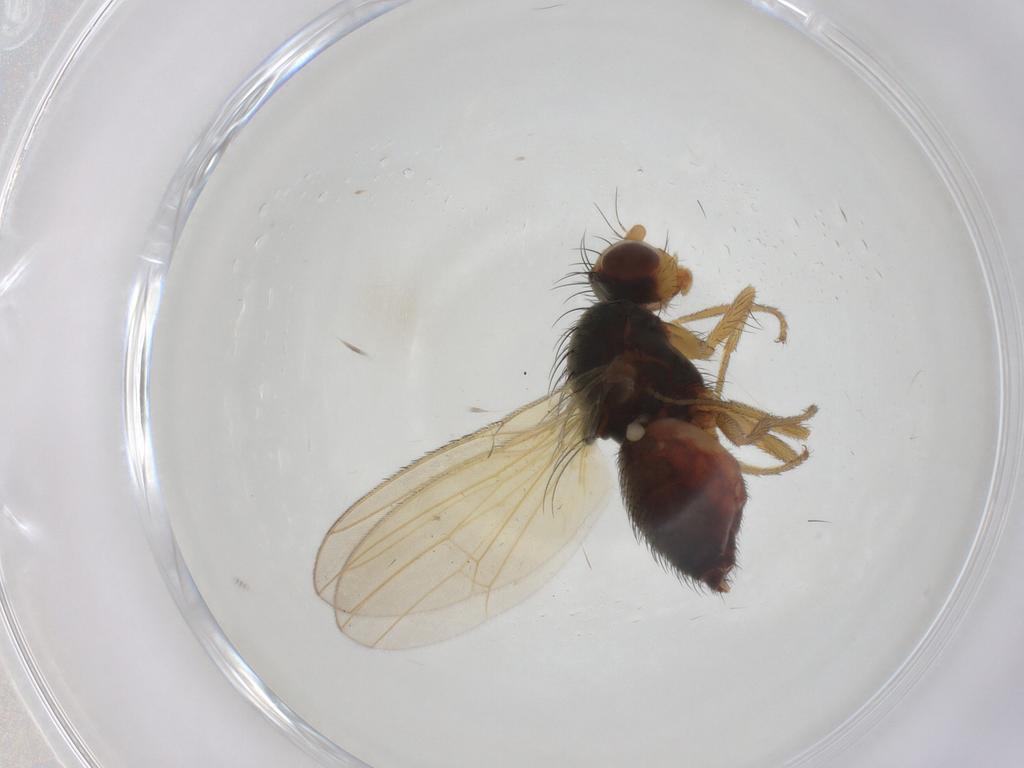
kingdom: Animalia
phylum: Arthropoda
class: Insecta
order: Diptera
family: Heleomyzidae
